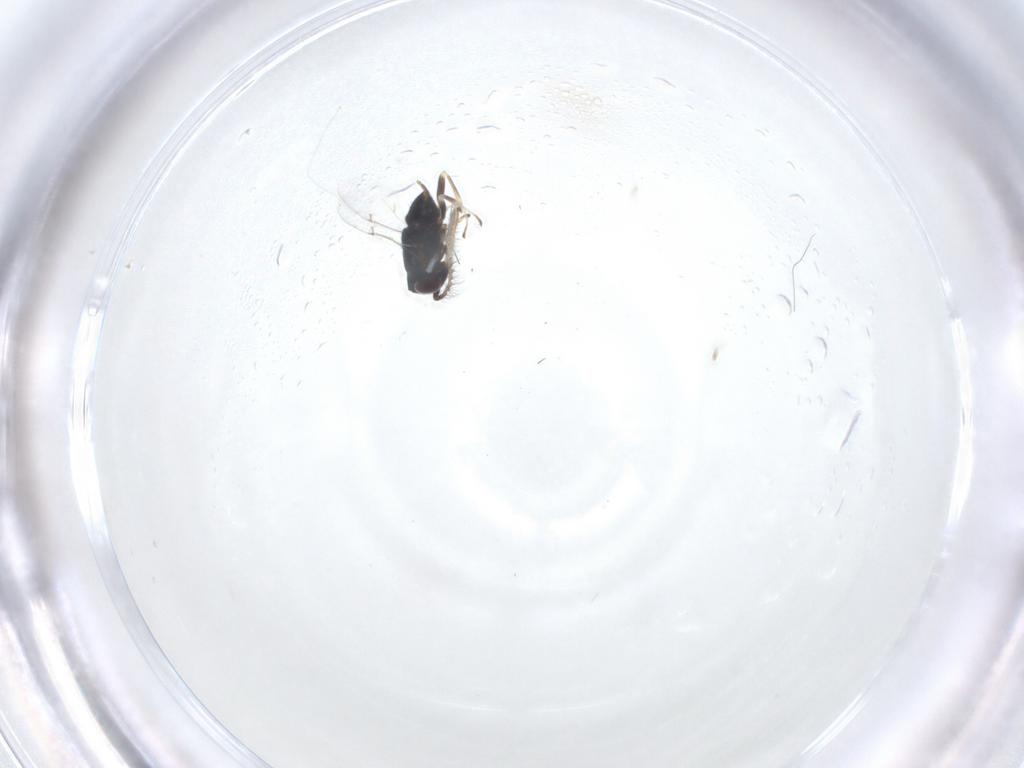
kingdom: Animalia
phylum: Arthropoda
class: Insecta
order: Hymenoptera
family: Encyrtidae
